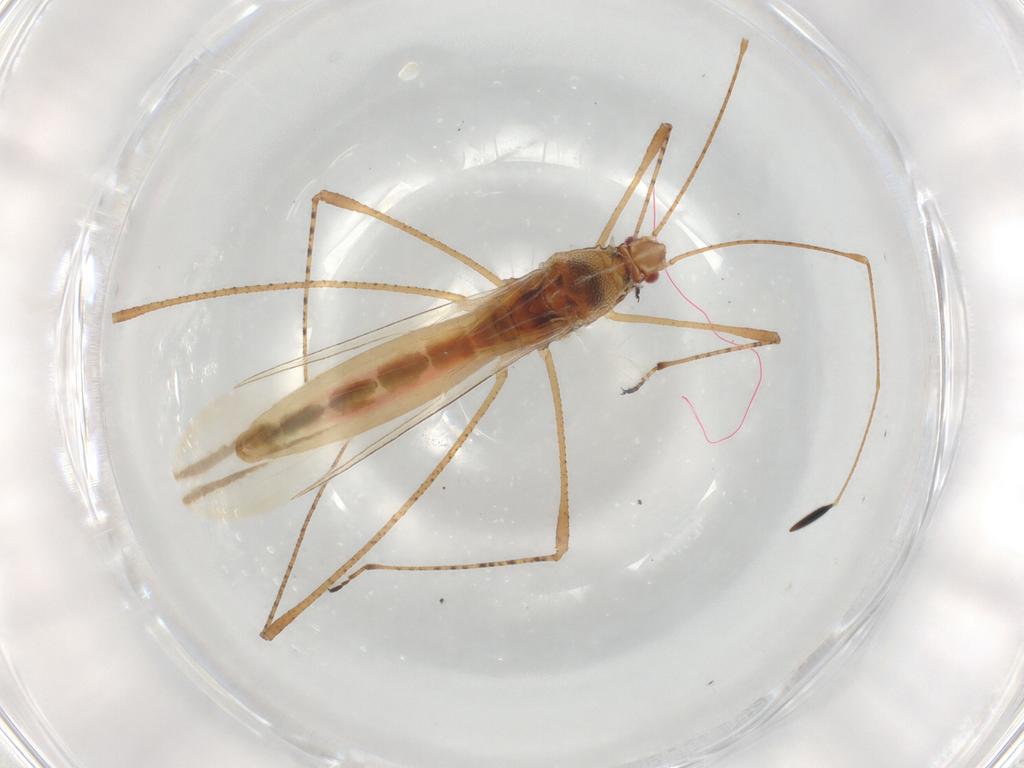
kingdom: Animalia
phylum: Arthropoda
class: Insecta
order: Hemiptera
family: Cymidae
